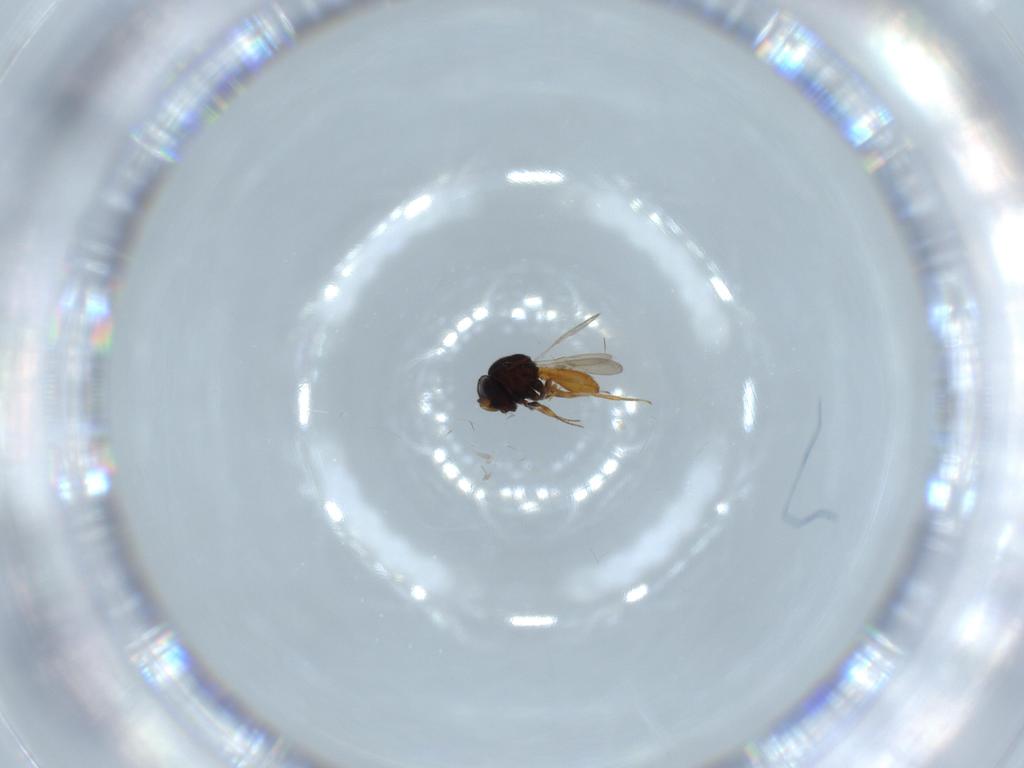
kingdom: Animalia
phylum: Arthropoda
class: Insecta
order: Hymenoptera
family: Scelionidae
